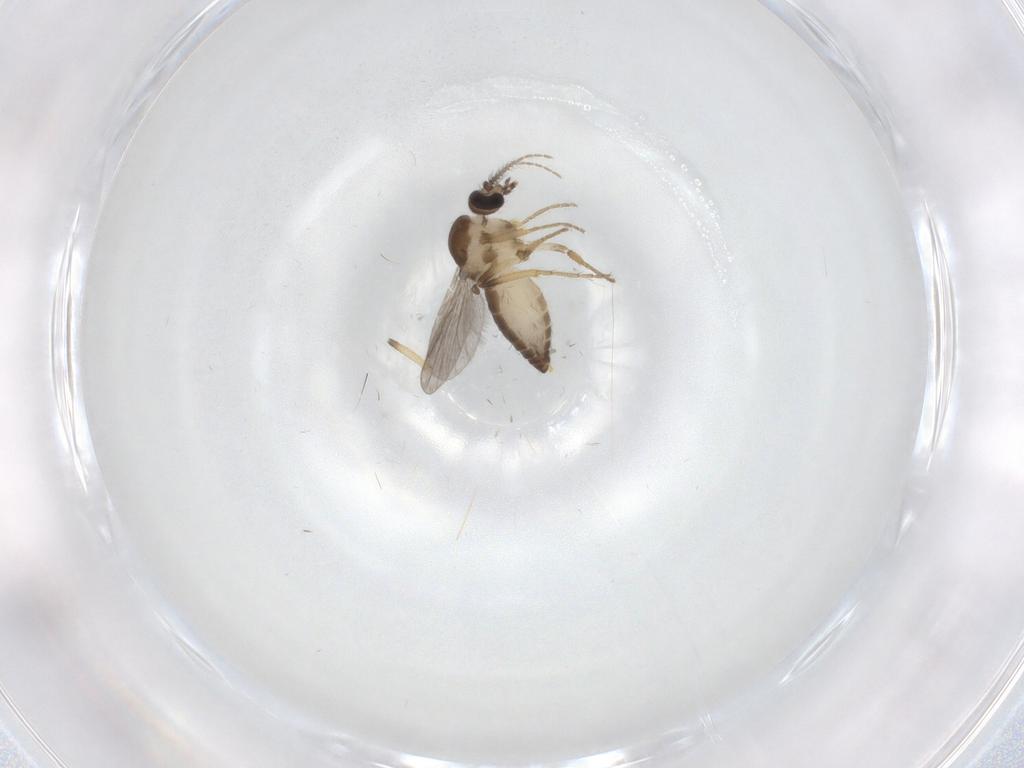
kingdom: Animalia
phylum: Arthropoda
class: Insecta
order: Diptera
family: Ceratopogonidae
